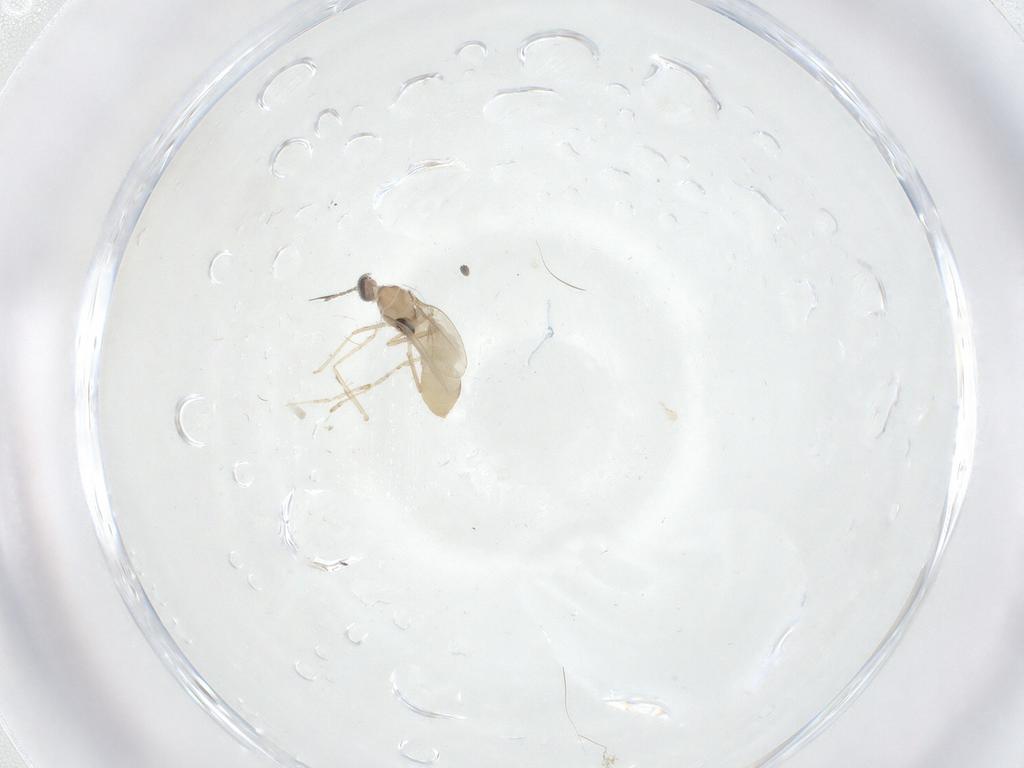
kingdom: Animalia
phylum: Arthropoda
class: Insecta
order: Diptera
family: Cecidomyiidae
